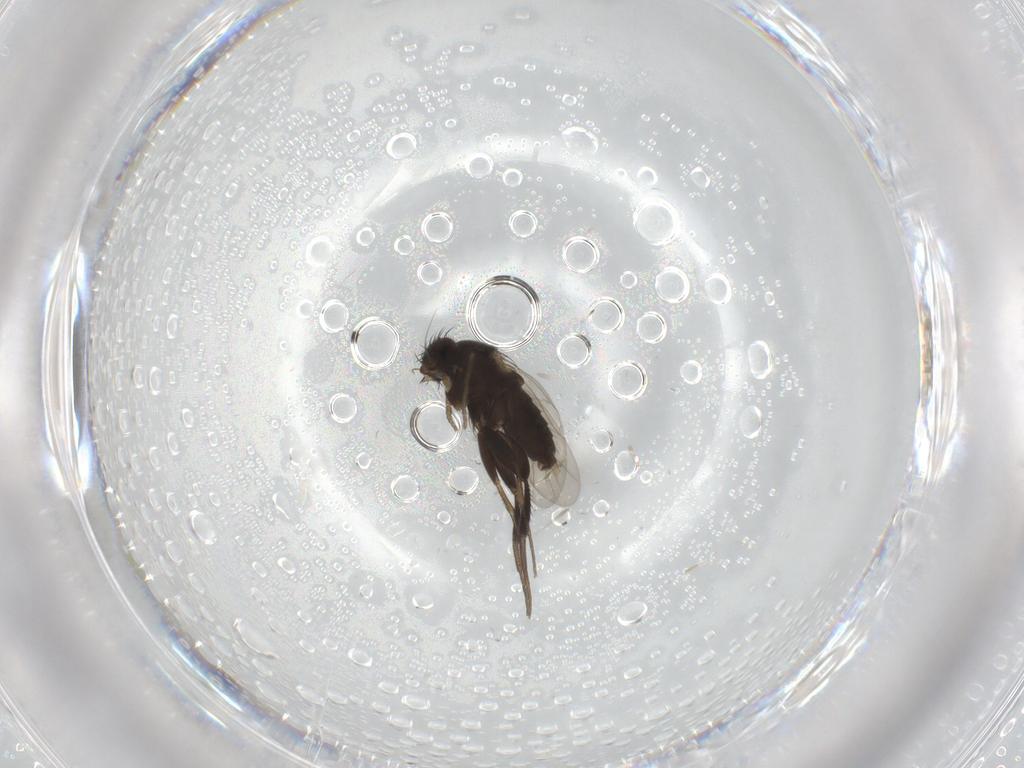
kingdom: Animalia
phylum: Arthropoda
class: Insecta
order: Diptera
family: Phoridae
